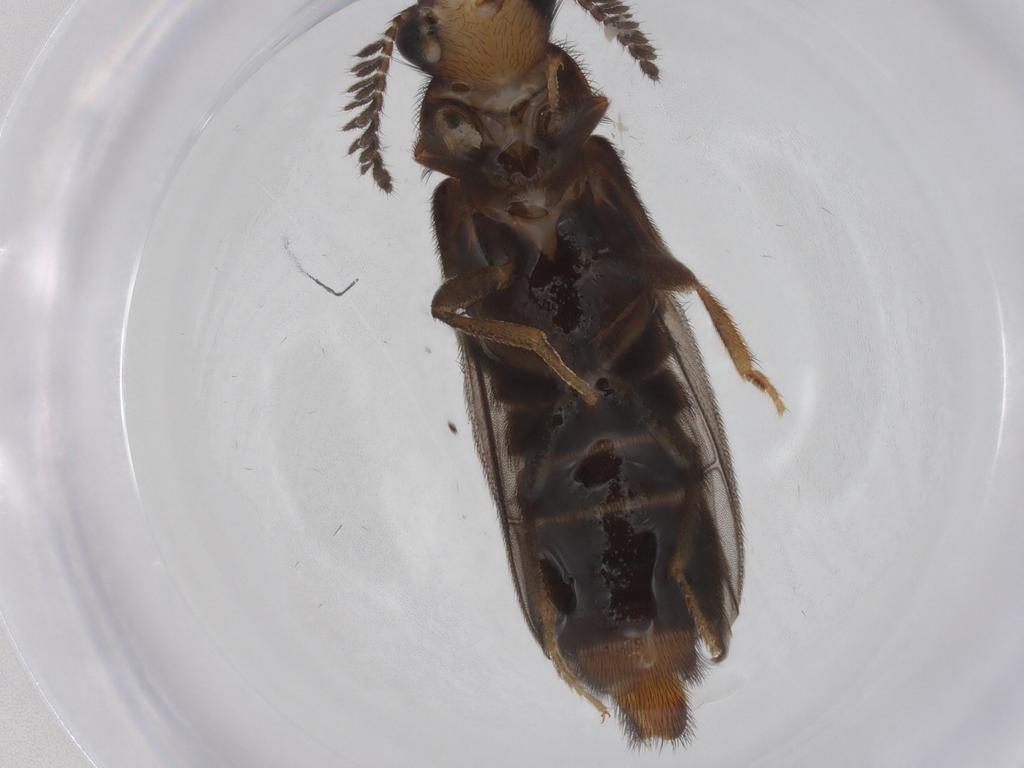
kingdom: Animalia
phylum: Arthropoda
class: Insecta
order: Coleoptera
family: Phengodidae
